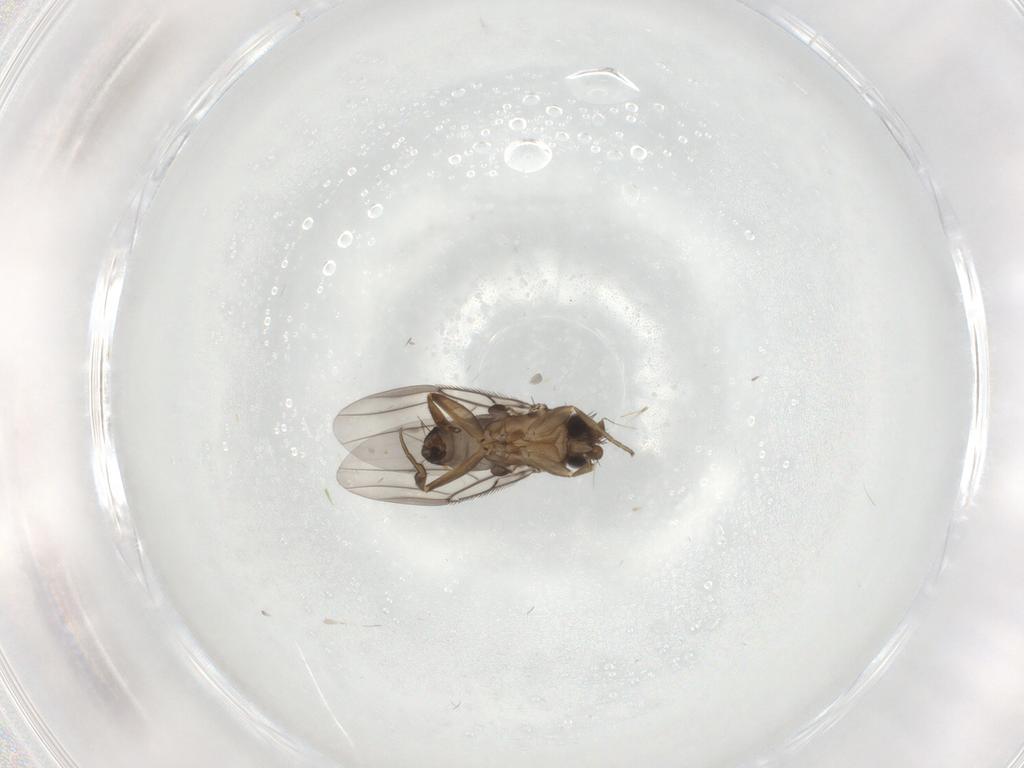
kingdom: Animalia
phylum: Arthropoda
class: Insecta
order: Diptera
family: Phoridae
